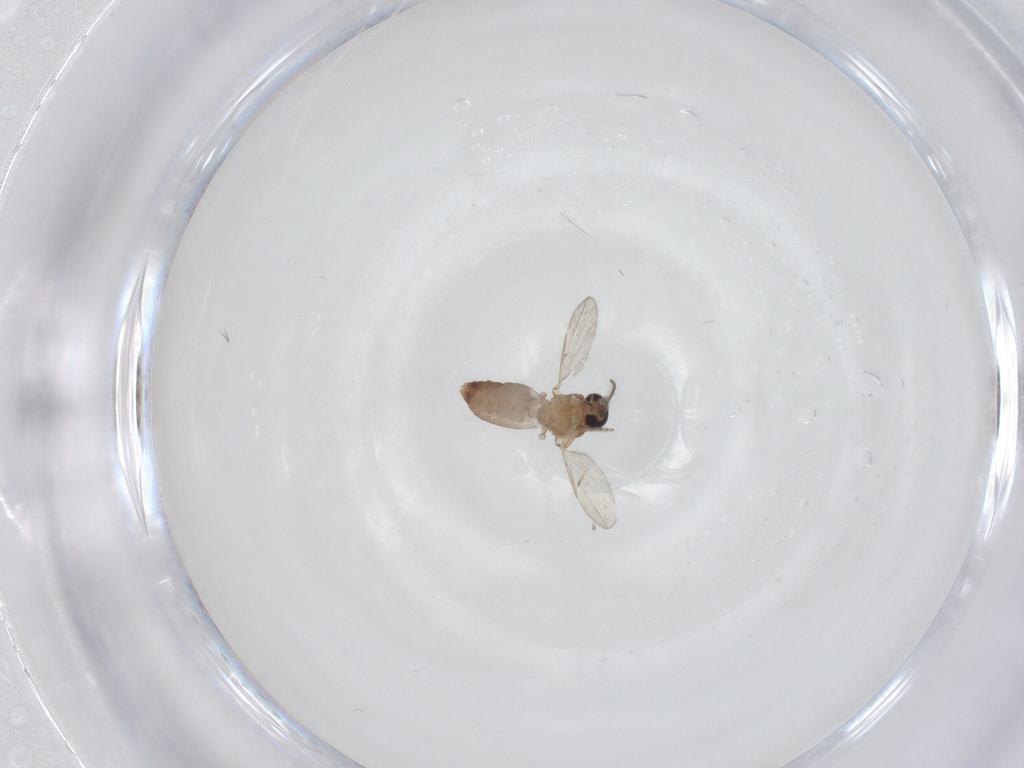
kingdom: Animalia
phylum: Arthropoda
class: Insecta
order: Diptera
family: Ceratopogonidae
